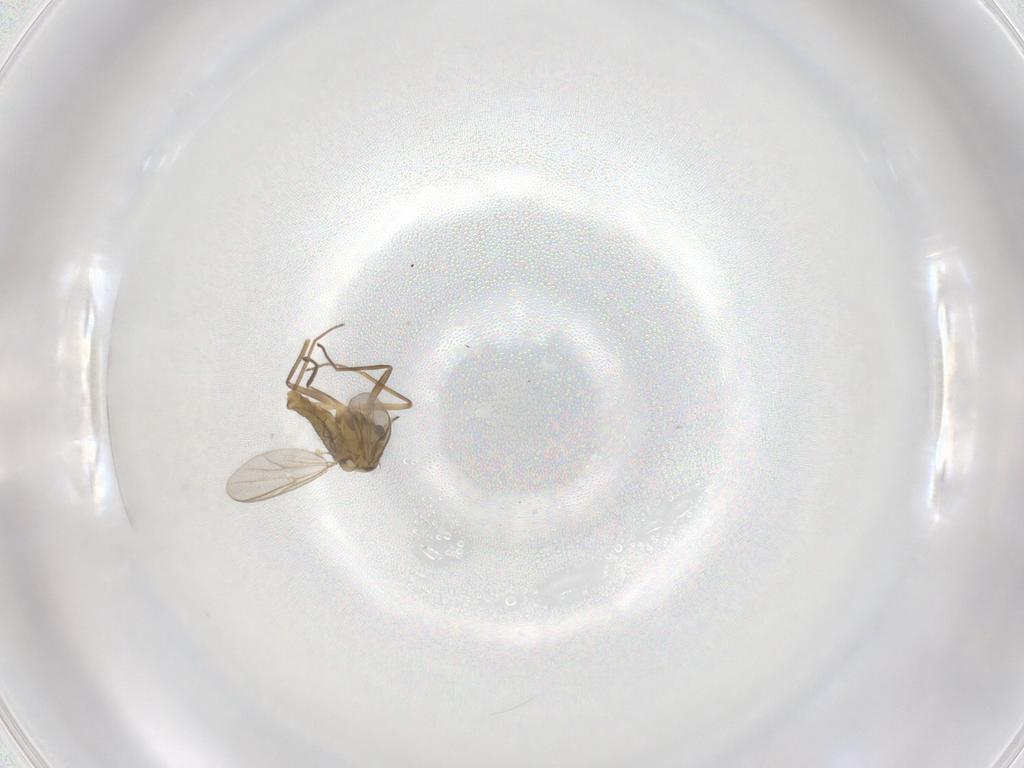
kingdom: Animalia
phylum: Arthropoda
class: Insecta
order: Diptera
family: Chironomidae
